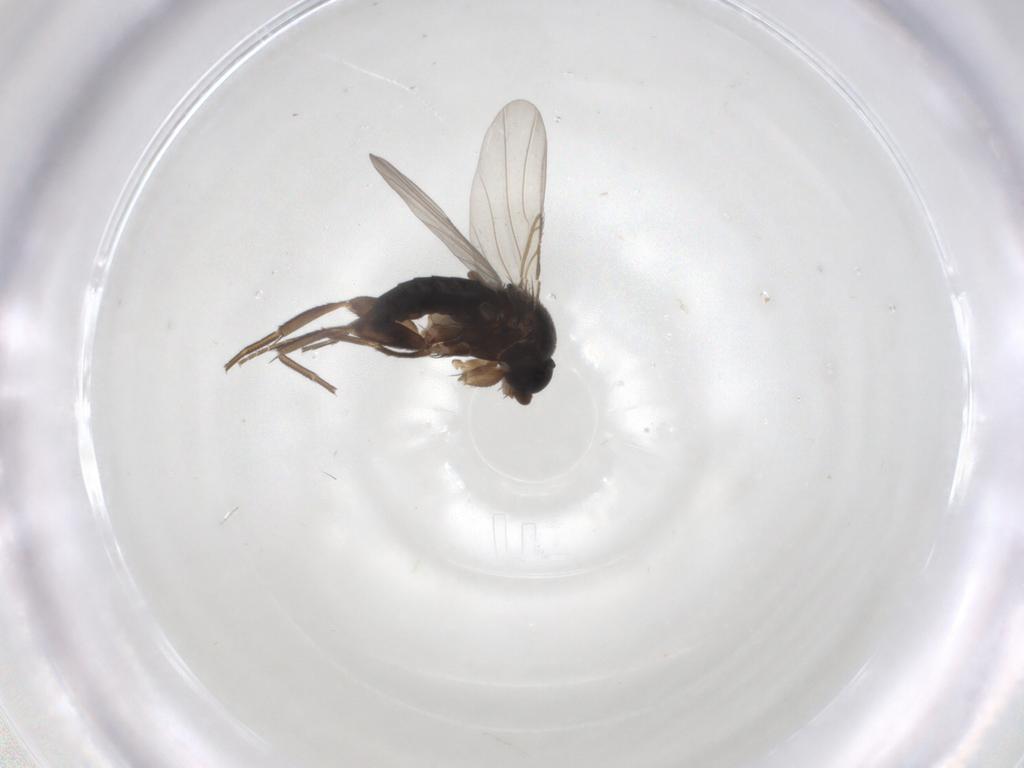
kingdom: Animalia
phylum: Arthropoda
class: Insecta
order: Diptera
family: Phoridae
